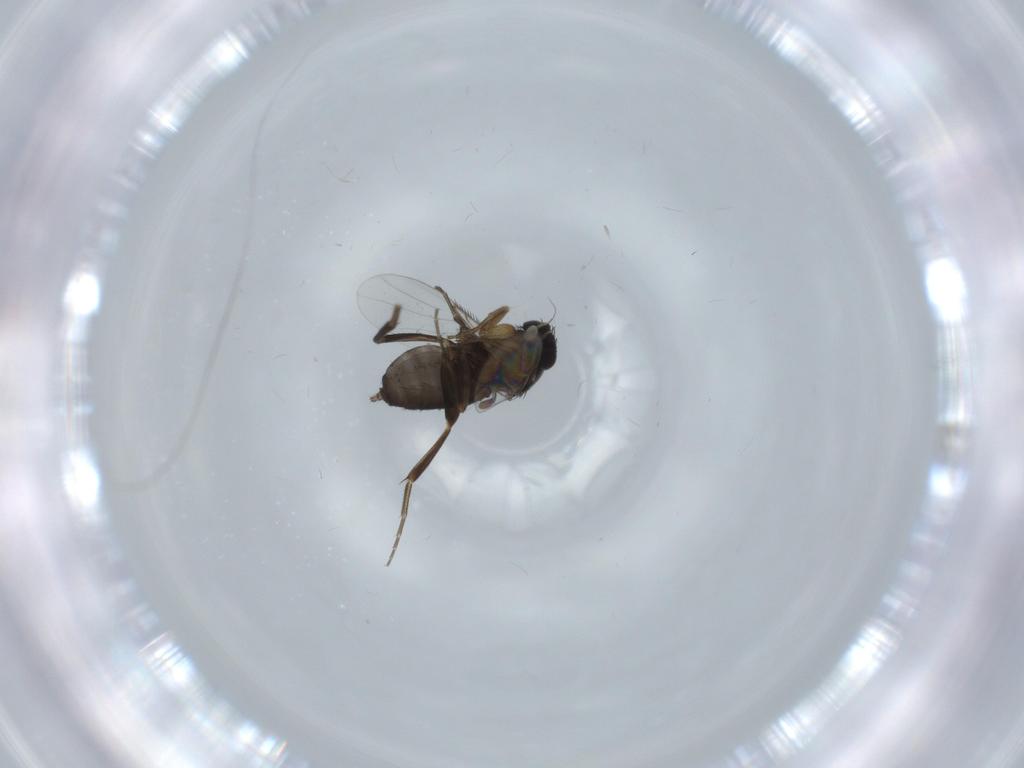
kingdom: Animalia
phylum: Arthropoda
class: Insecta
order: Diptera
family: Phoridae
